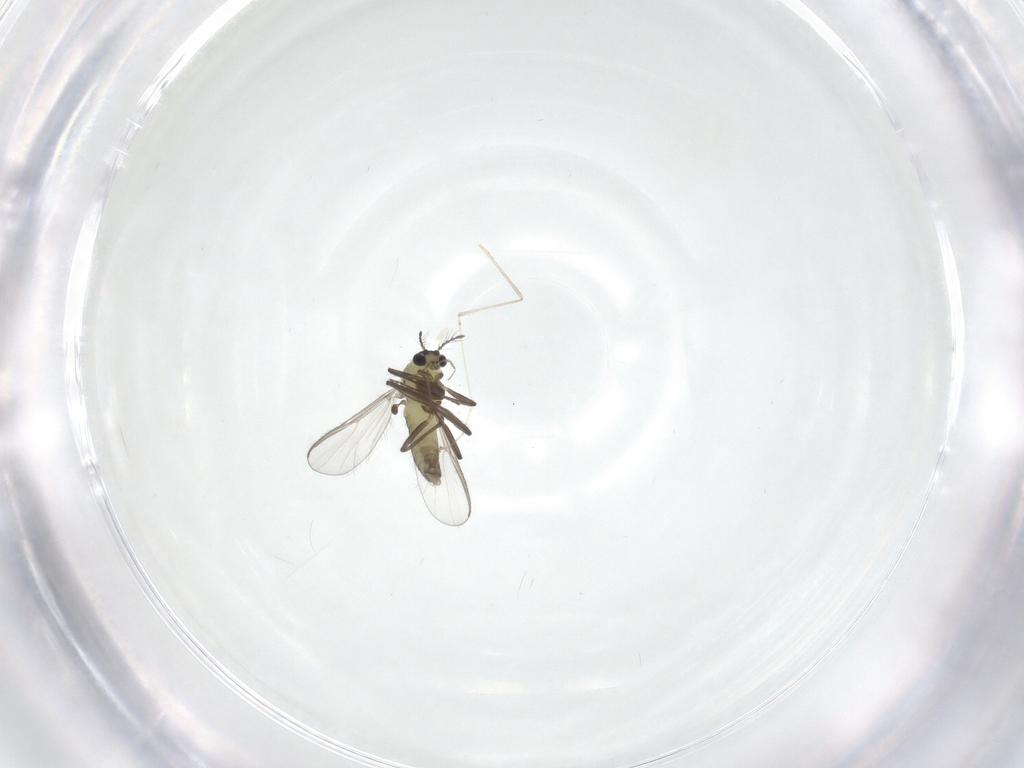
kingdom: Animalia
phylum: Arthropoda
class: Insecta
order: Diptera
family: Chironomidae
